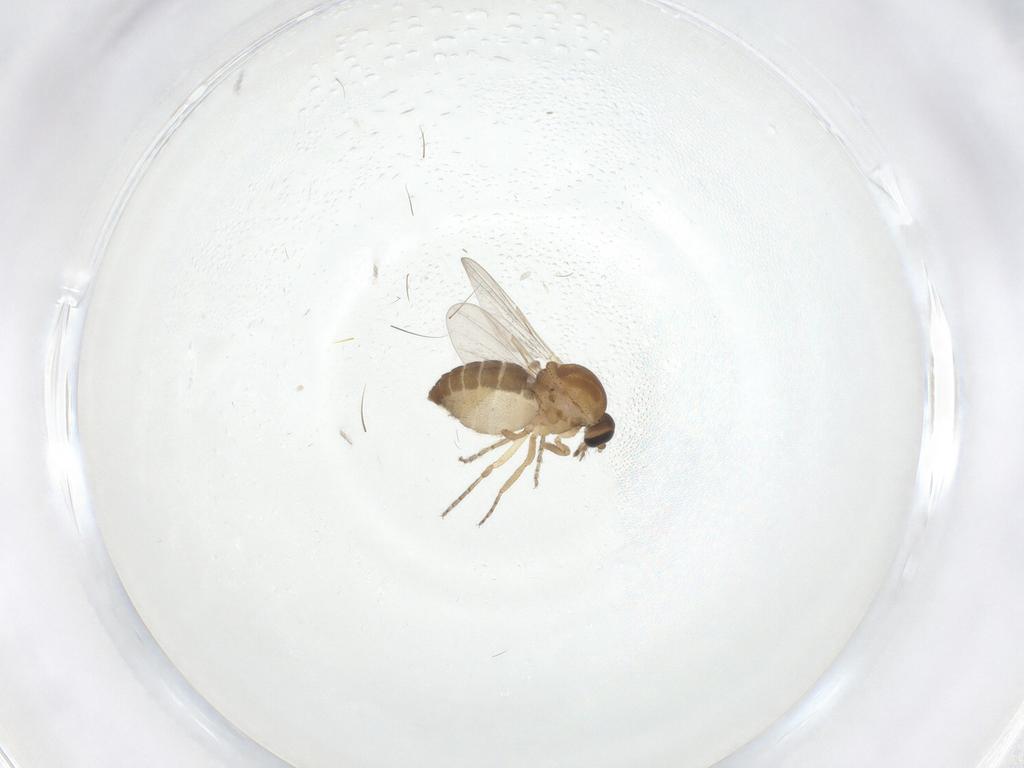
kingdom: Animalia
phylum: Arthropoda
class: Insecta
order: Diptera
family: Ceratopogonidae
